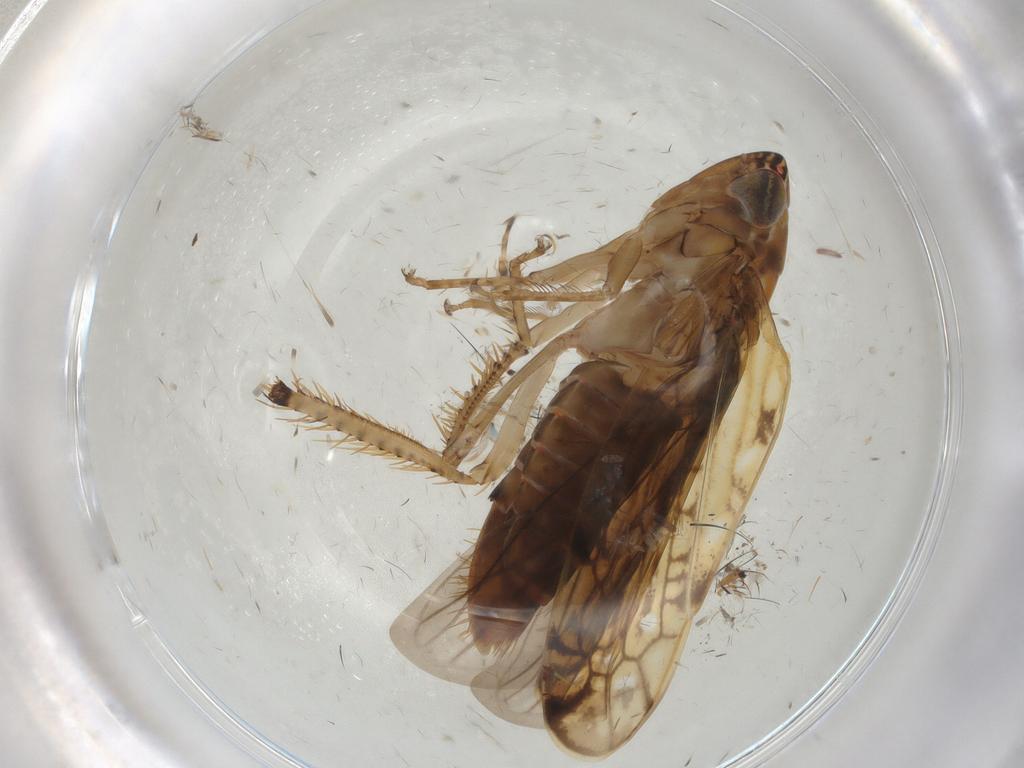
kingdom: Animalia
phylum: Arthropoda
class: Insecta
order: Hemiptera
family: Cicadellidae
